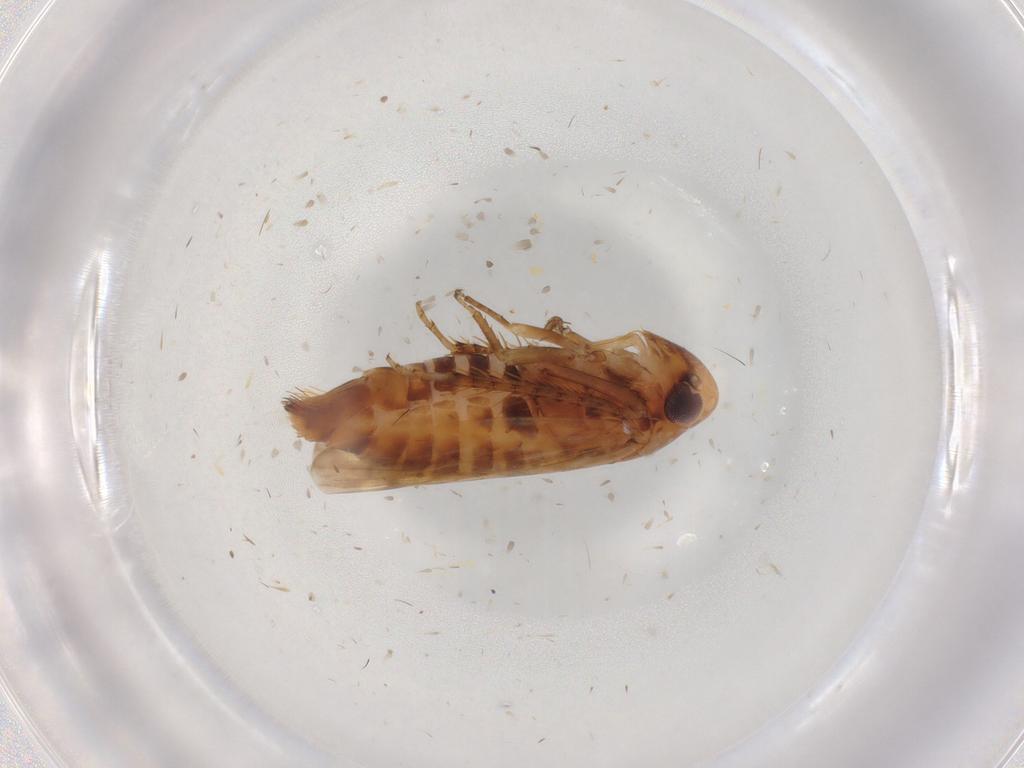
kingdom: Animalia
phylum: Arthropoda
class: Insecta
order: Hemiptera
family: Cicadellidae
